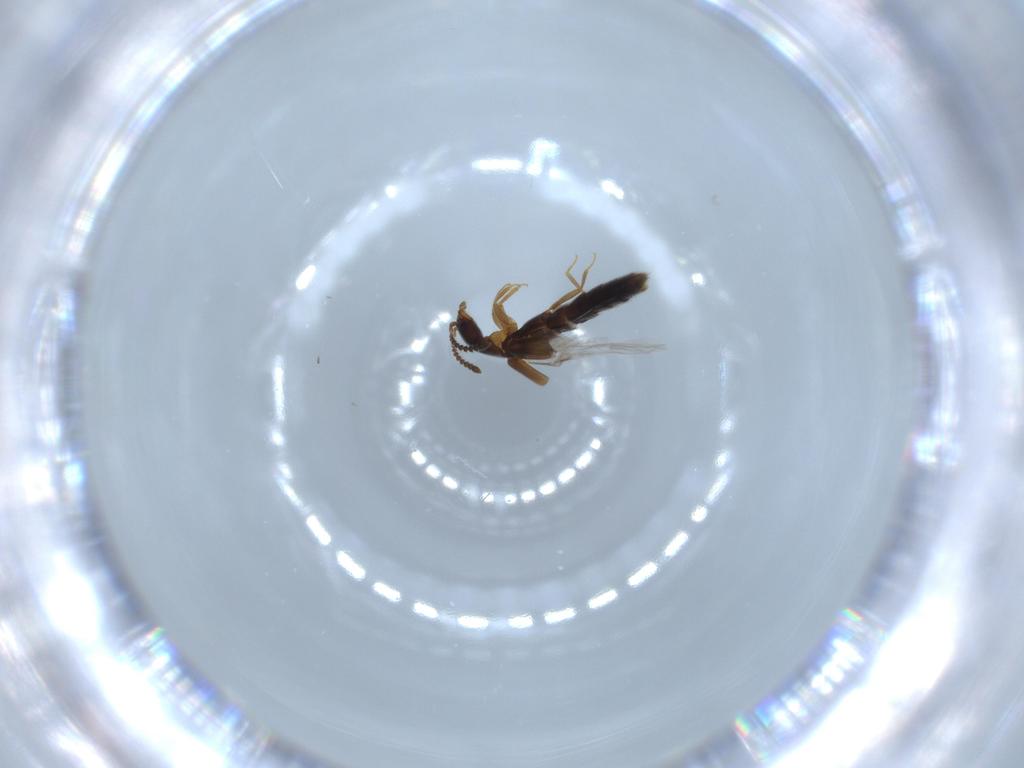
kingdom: Animalia
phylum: Arthropoda
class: Insecta
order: Coleoptera
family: Staphylinidae
